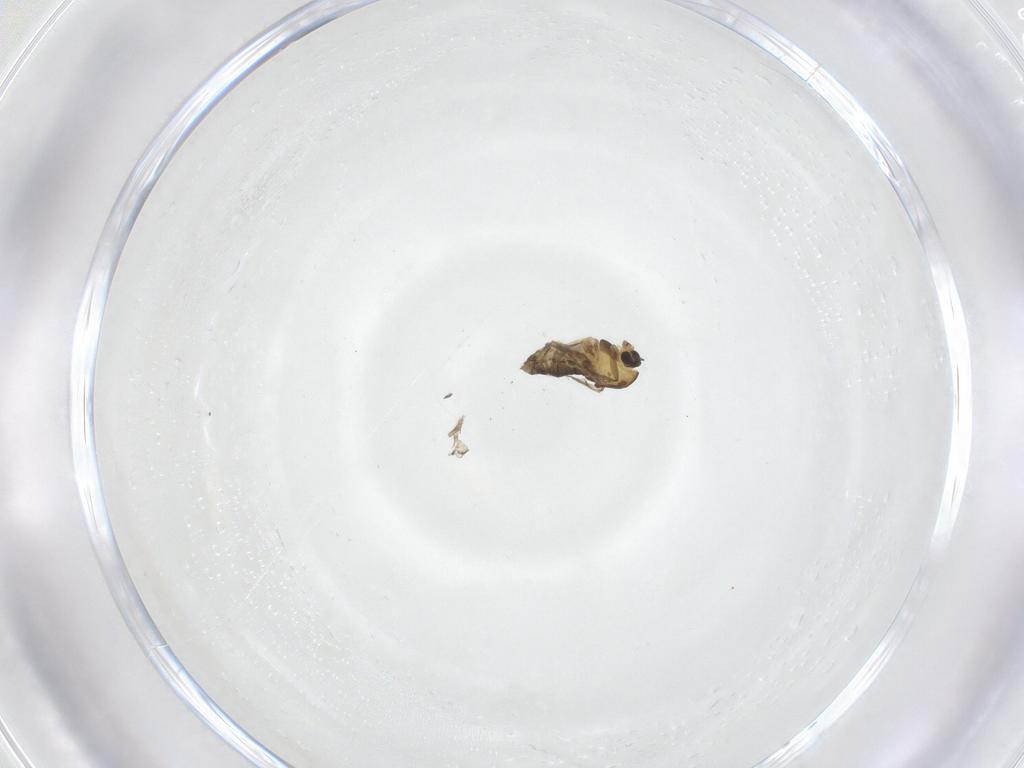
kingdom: Animalia
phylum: Arthropoda
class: Insecta
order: Diptera
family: Chironomidae
